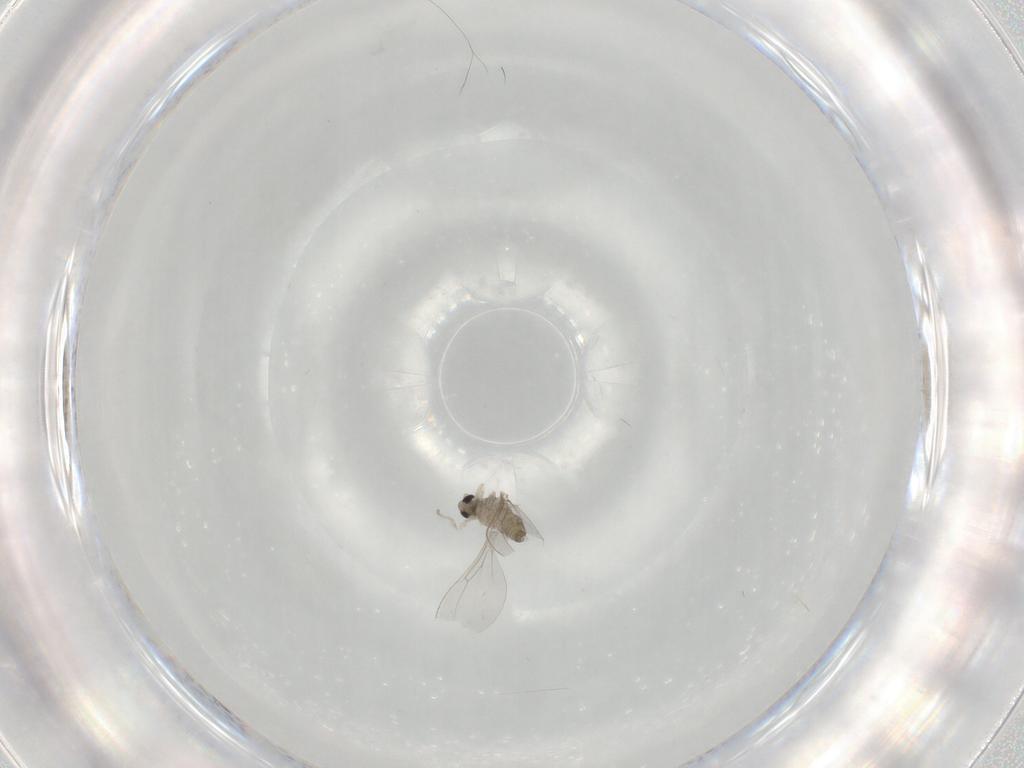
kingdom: Animalia
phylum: Arthropoda
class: Insecta
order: Diptera
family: Cecidomyiidae
